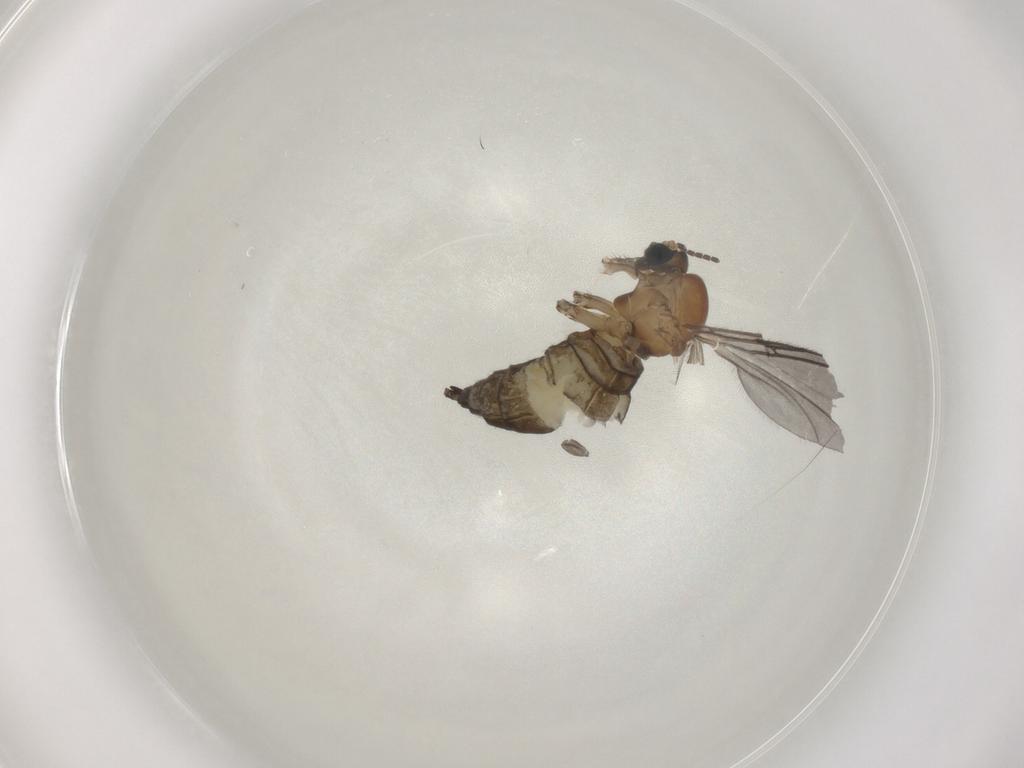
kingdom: Animalia
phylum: Arthropoda
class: Insecta
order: Diptera
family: Sciaridae
